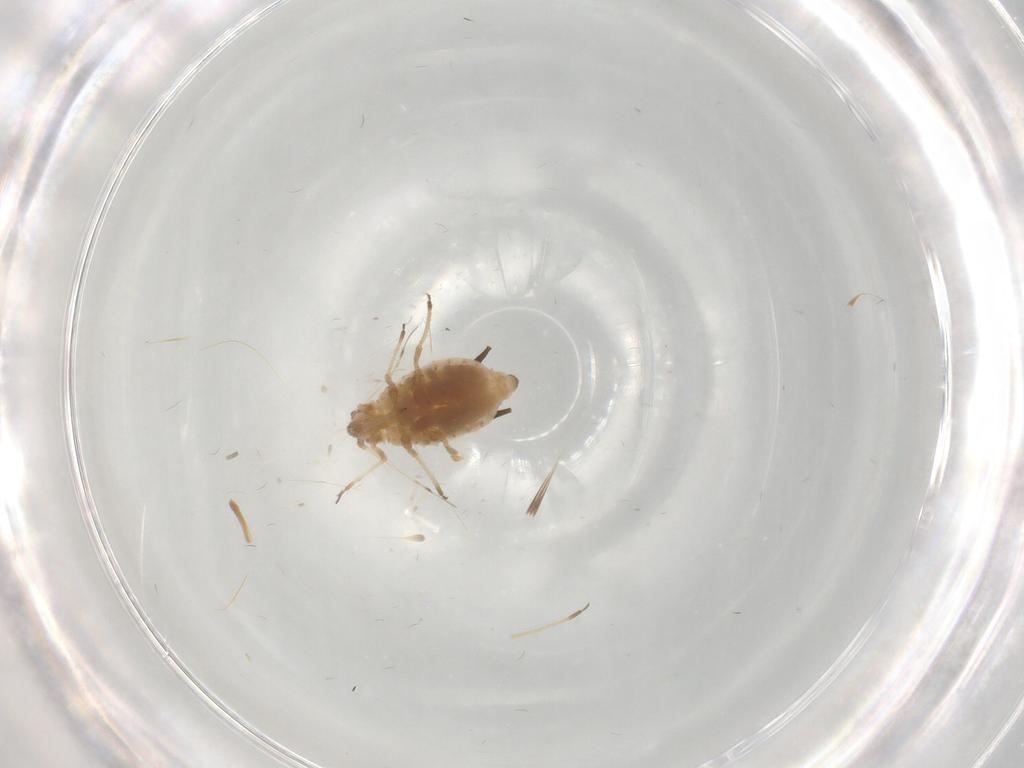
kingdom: Animalia
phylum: Arthropoda
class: Insecta
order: Hemiptera
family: Aphididae
